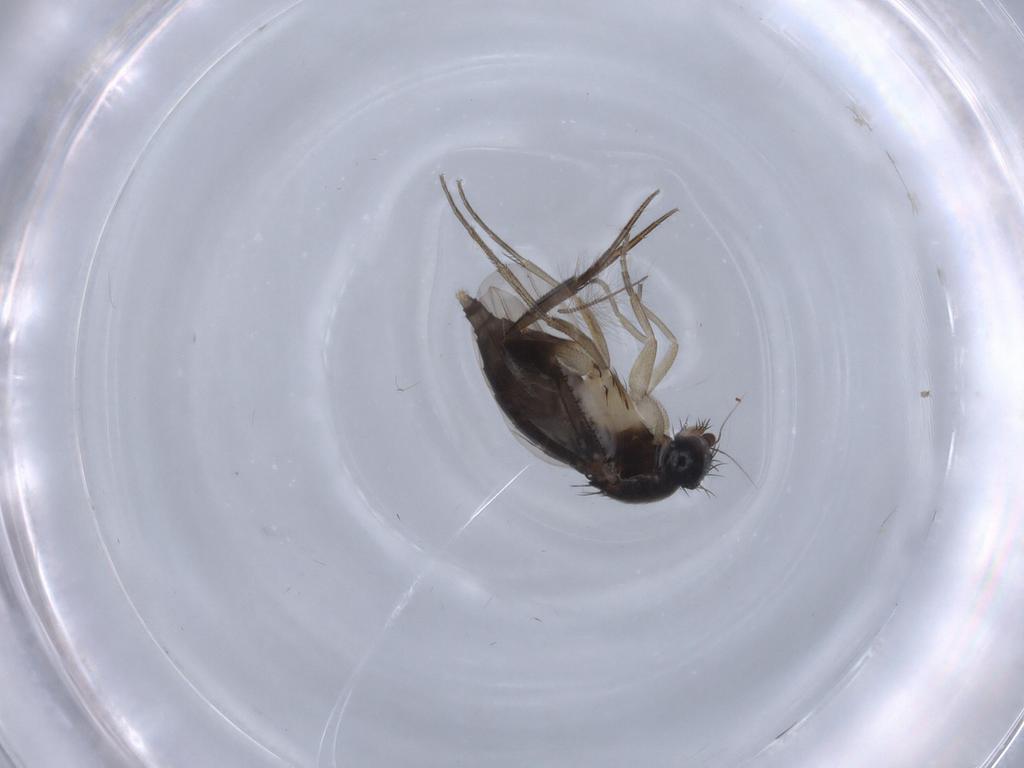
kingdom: Animalia
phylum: Arthropoda
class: Insecta
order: Diptera
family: Phoridae
